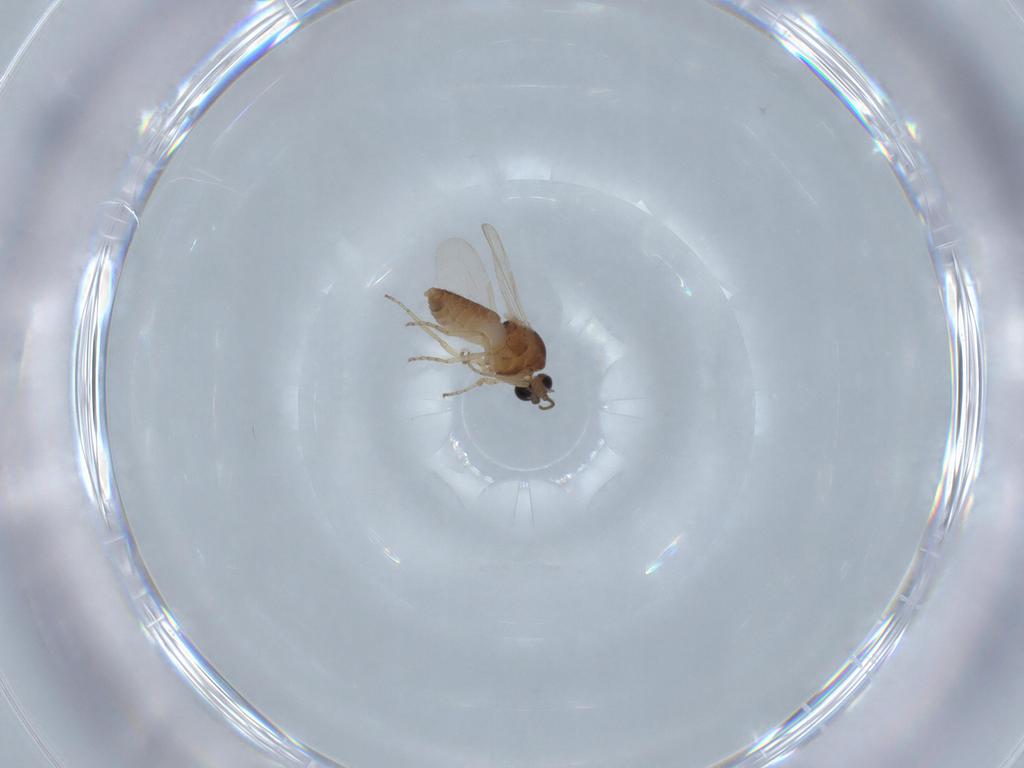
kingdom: Animalia
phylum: Arthropoda
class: Insecta
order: Diptera
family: Ceratopogonidae
